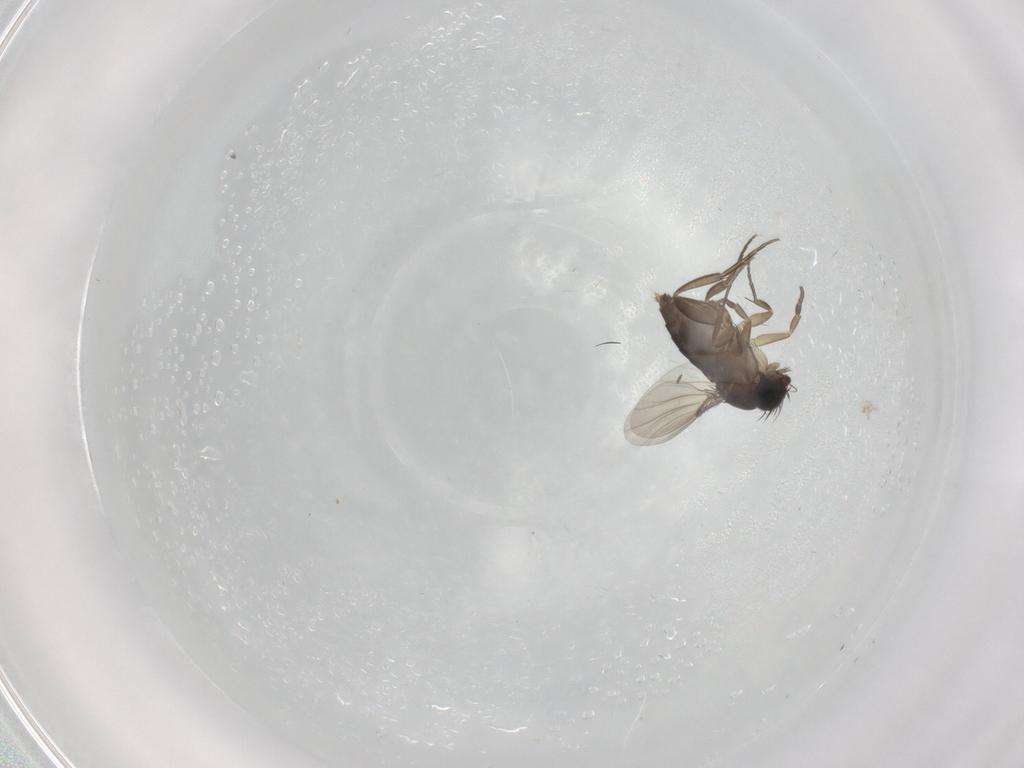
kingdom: Animalia
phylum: Arthropoda
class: Insecta
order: Diptera
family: Phoridae
